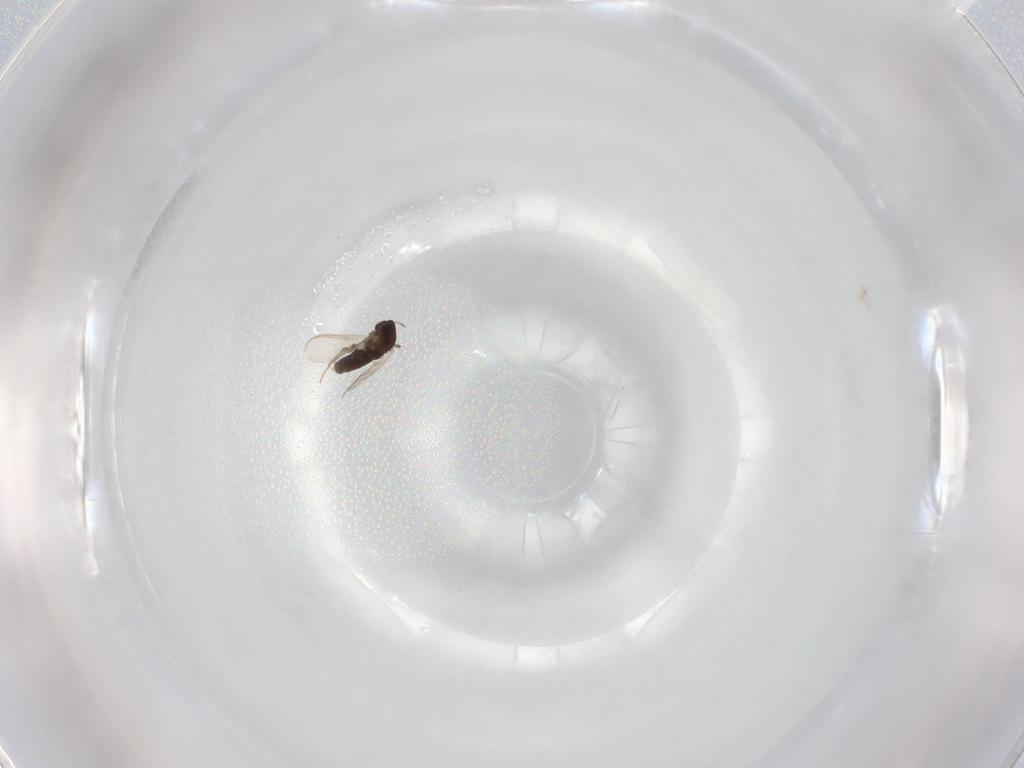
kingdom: Animalia
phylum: Arthropoda
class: Insecta
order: Diptera
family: Chironomidae
